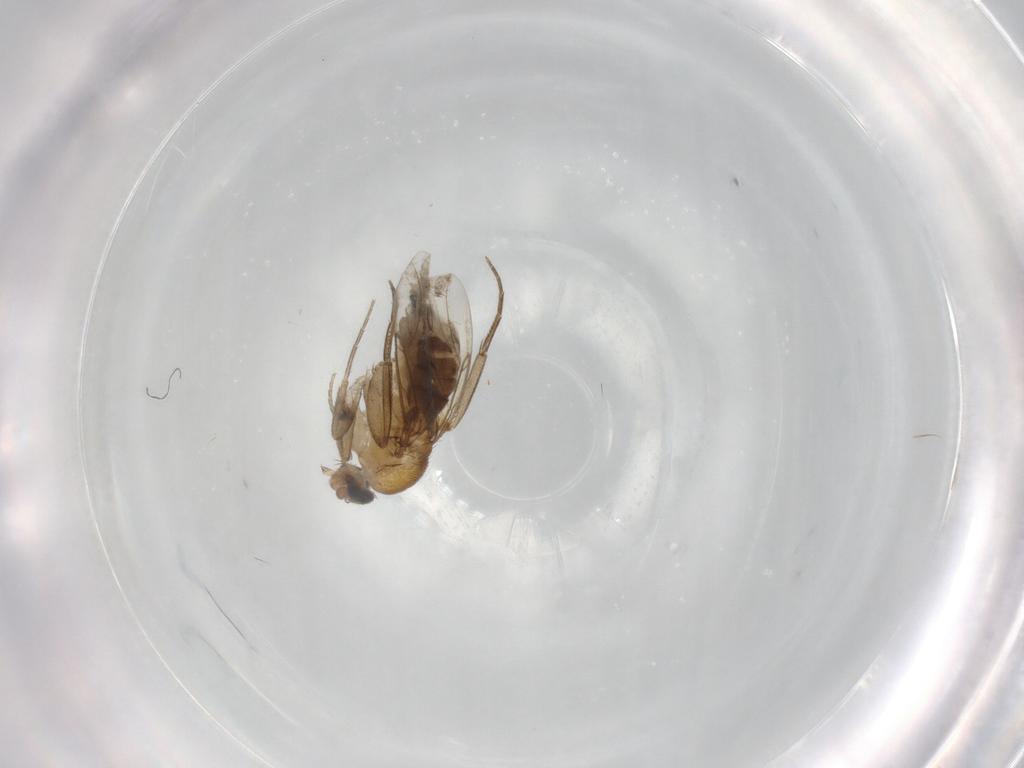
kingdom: Animalia
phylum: Arthropoda
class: Insecta
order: Diptera
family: Phoridae
